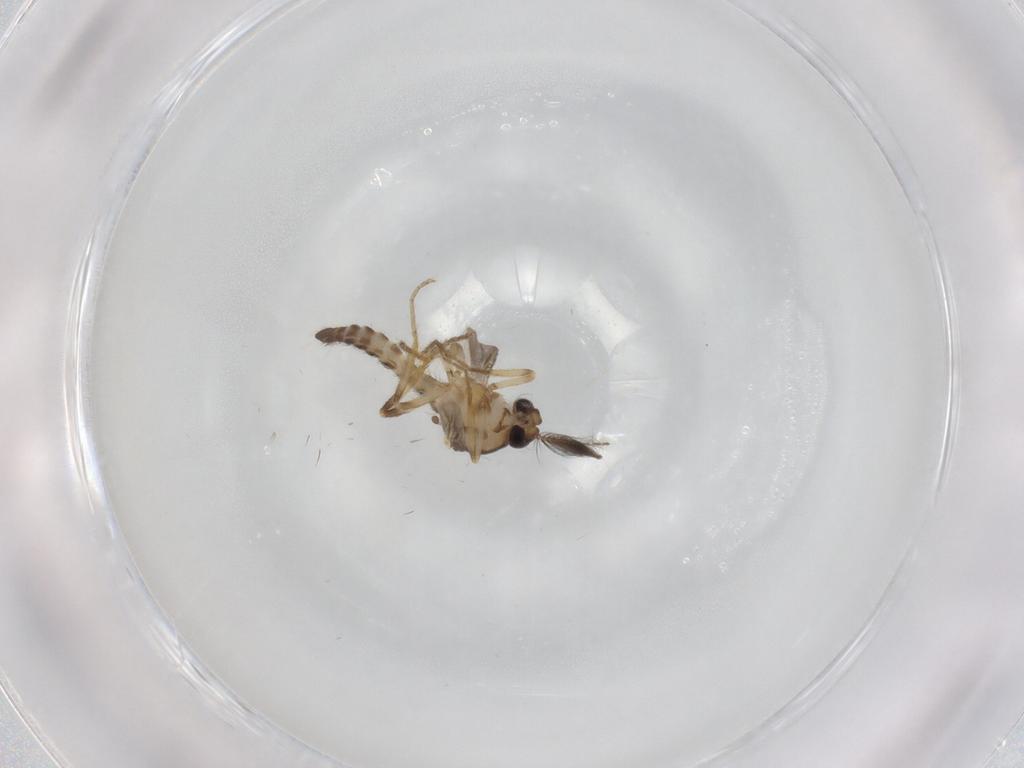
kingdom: Animalia
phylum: Arthropoda
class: Insecta
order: Diptera
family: Ceratopogonidae
